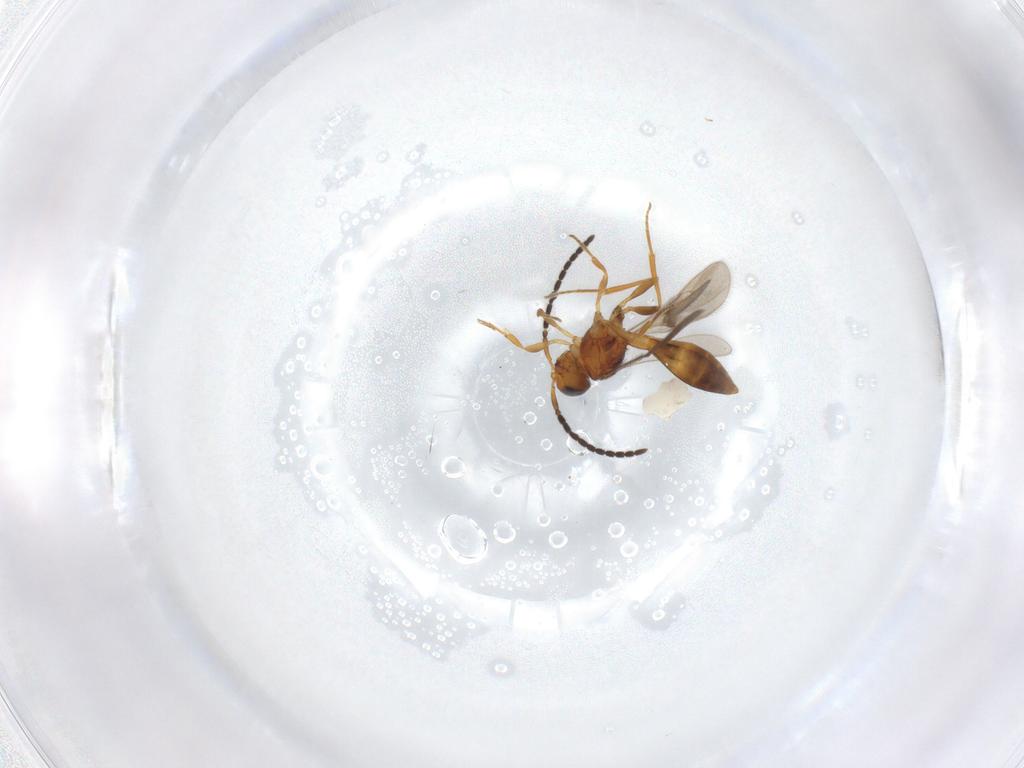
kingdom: Animalia
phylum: Arthropoda
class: Insecta
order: Hymenoptera
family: Scelionidae
